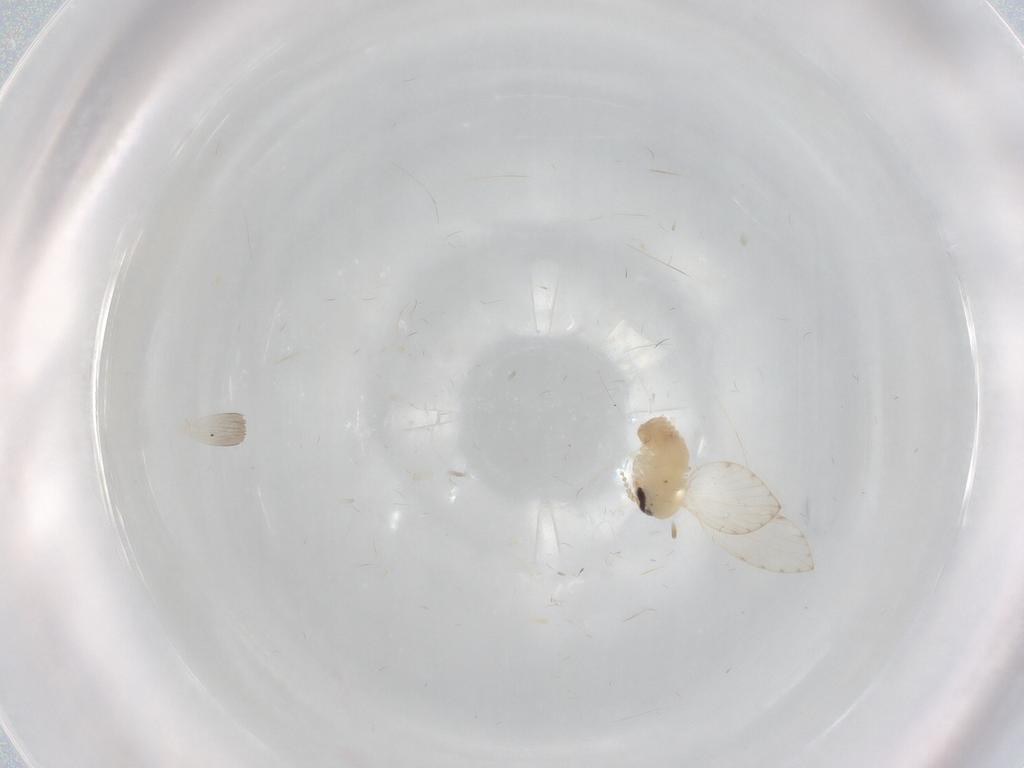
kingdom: Animalia
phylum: Arthropoda
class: Insecta
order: Diptera
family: Psychodidae
